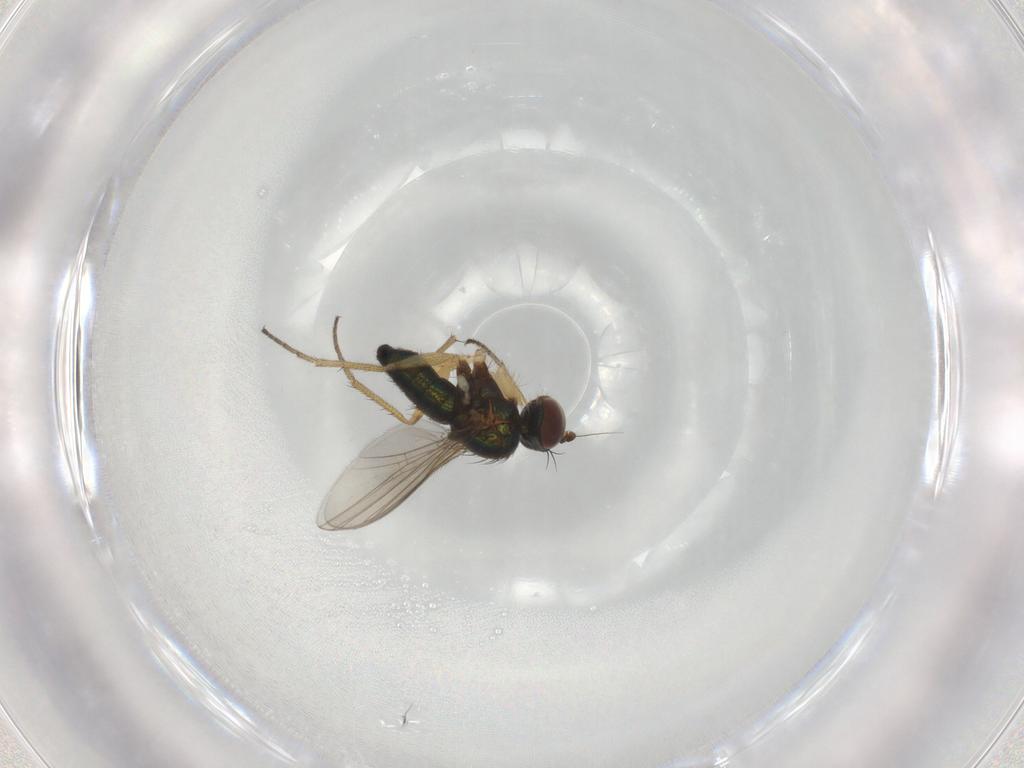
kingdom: Animalia
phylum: Arthropoda
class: Insecta
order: Diptera
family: Dolichopodidae
